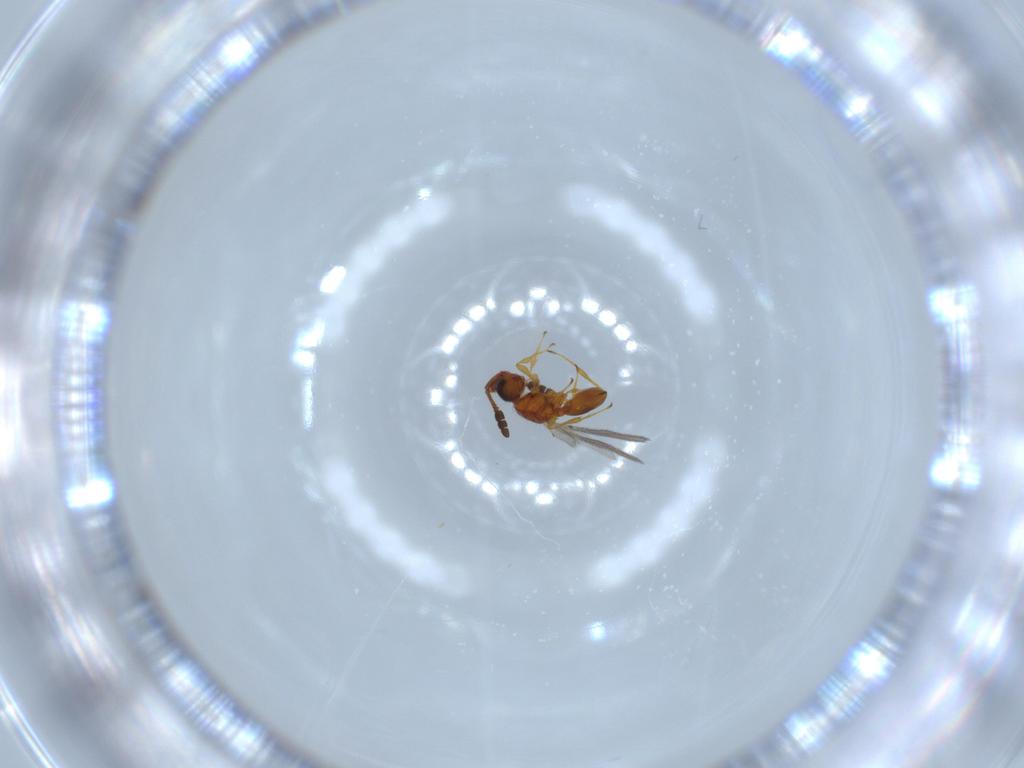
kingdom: Animalia
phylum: Arthropoda
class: Insecta
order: Hymenoptera
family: Diapriidae
